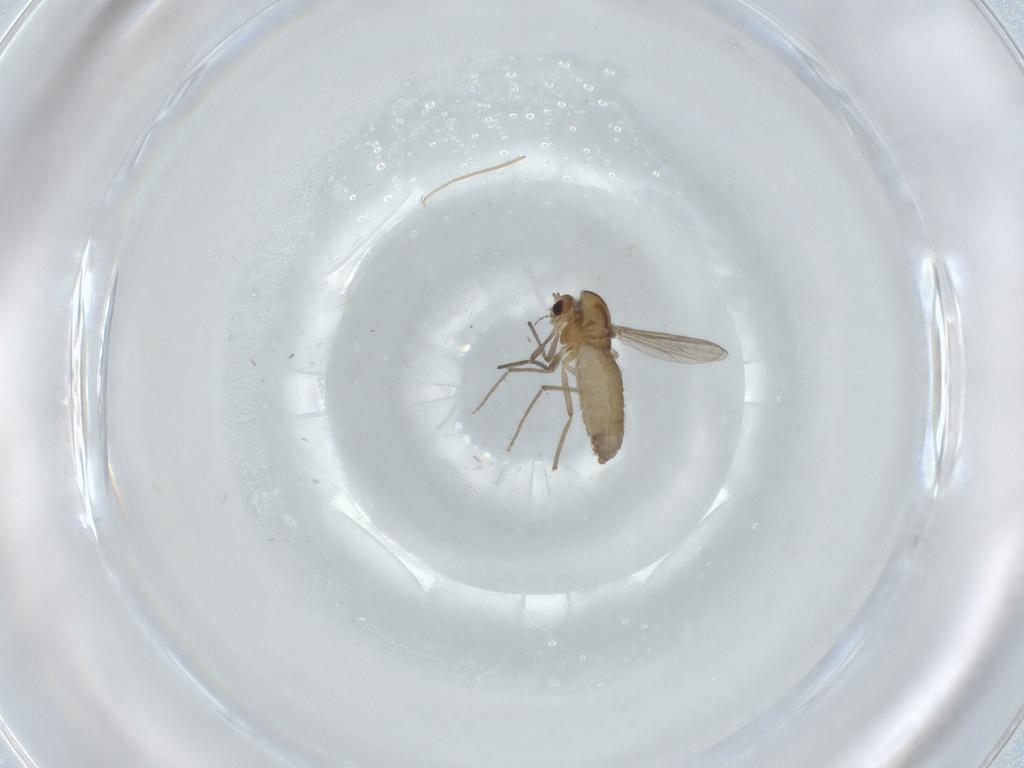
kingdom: Animalia
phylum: Arthropoda
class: Insecta
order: Diptera
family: Chironomidae
